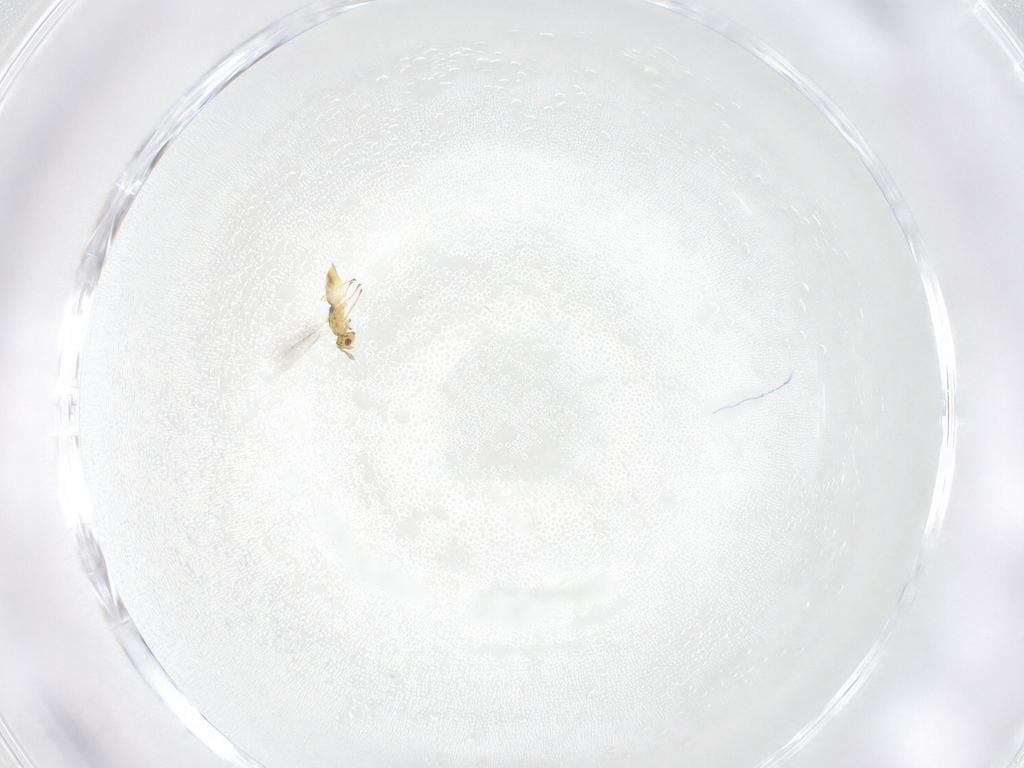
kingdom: Animalia
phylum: Arthropoda
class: Insecta
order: Hymenoptera
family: Eulophidae
